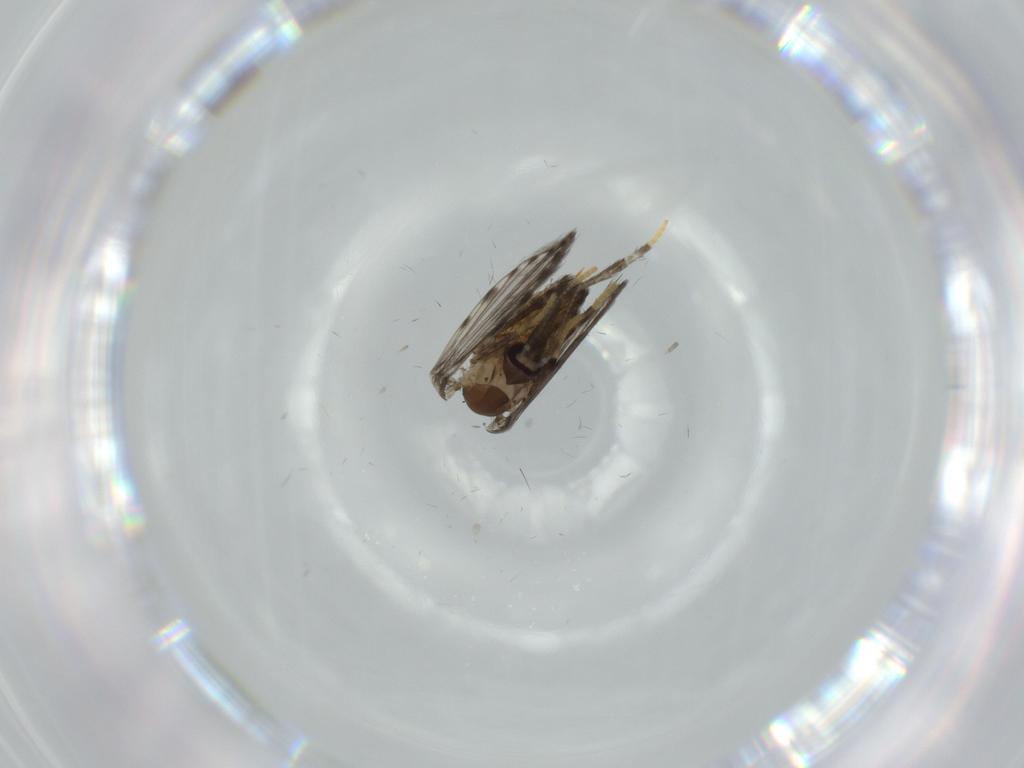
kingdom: Animalia
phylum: Arthropoda
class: Insecta
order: Diptera
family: Psychodidae
